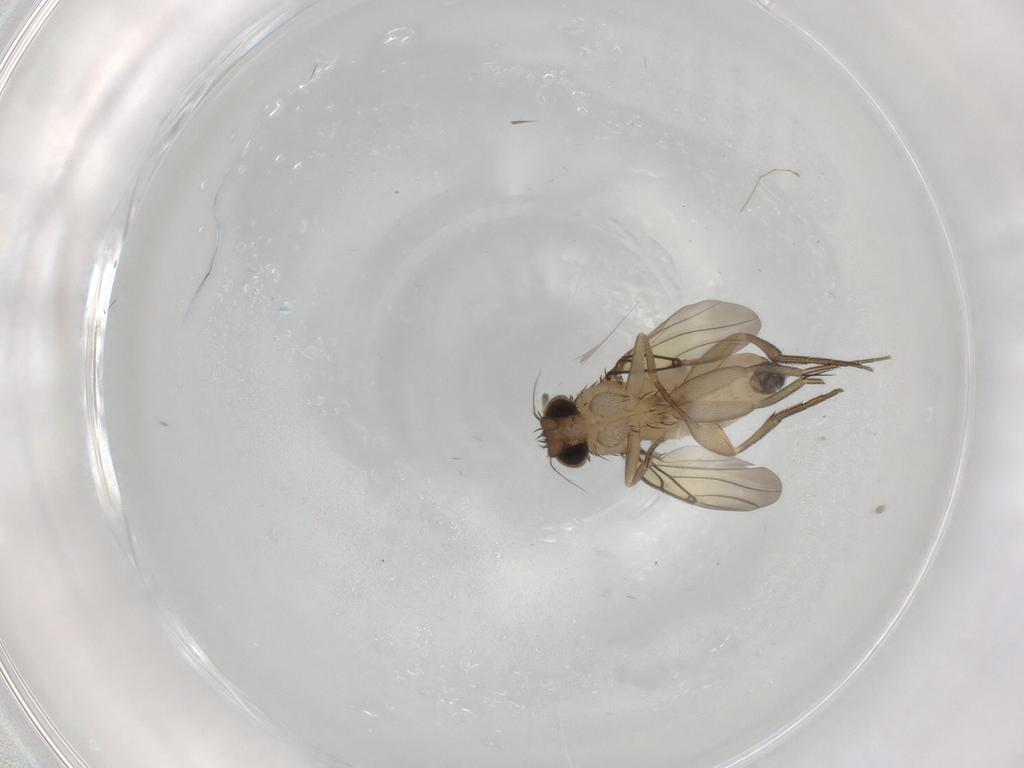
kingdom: Animalia
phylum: Arthropoda
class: Insecta
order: Diptera
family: Cecidomyiidae
